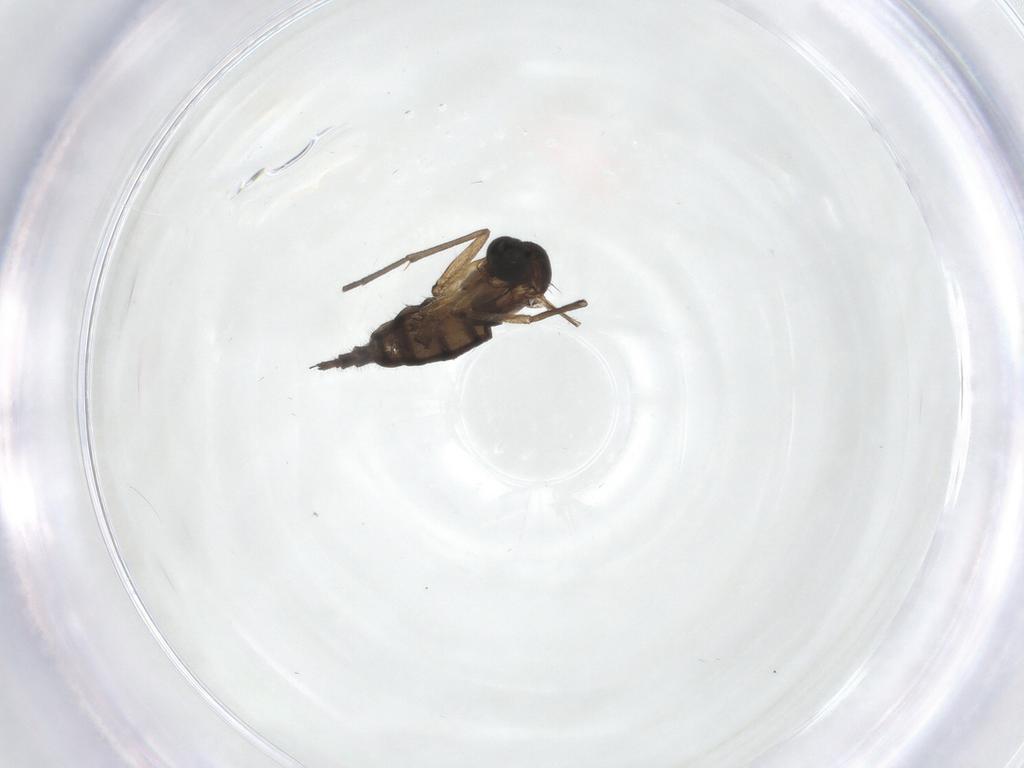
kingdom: Animalia
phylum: Arthropoda
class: Insecta
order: Diptera
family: Sciaridae
